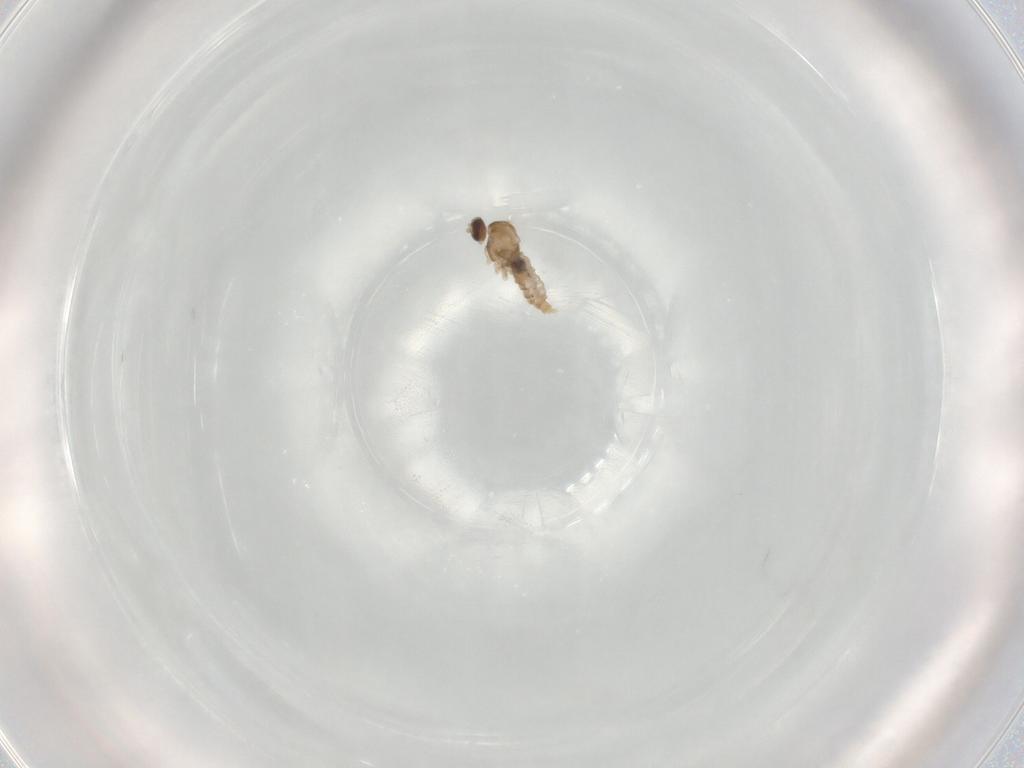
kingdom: Animalia
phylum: Arthropoda
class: Insecta
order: Diptera
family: Cecidomyiidae
